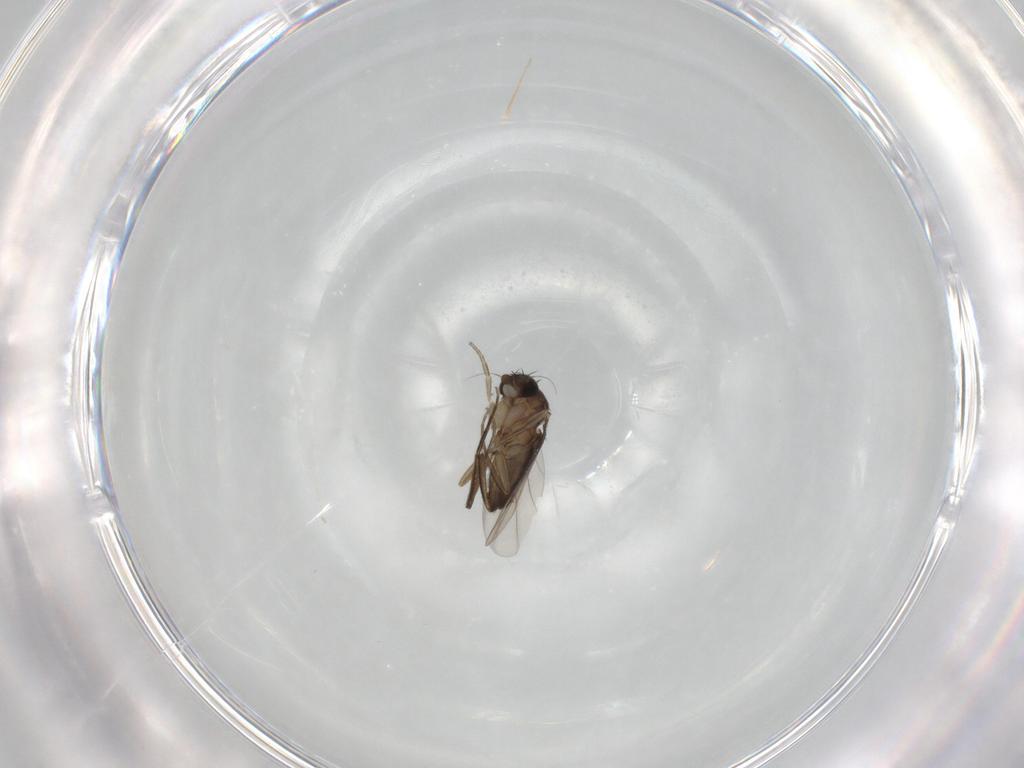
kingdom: Animalia
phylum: Arthropoda
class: Insecta
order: Diptera
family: Phoridae
